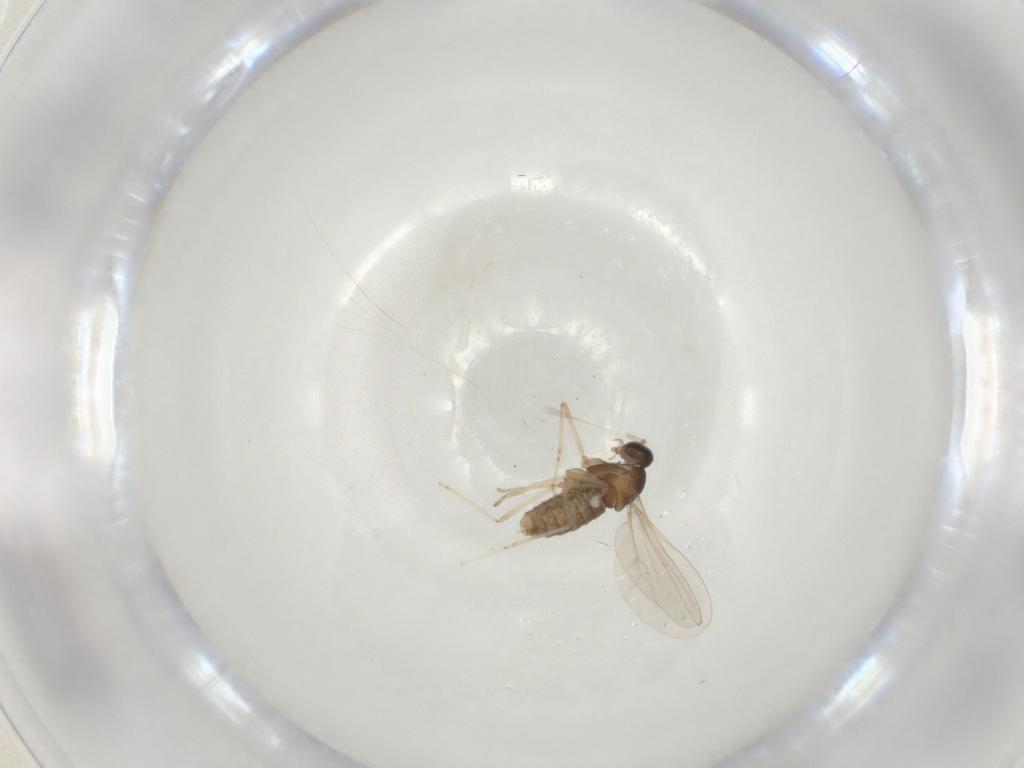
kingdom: Animalia
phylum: Arthropoda
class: Insecta
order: Diptera
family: Cecidomyiidae
